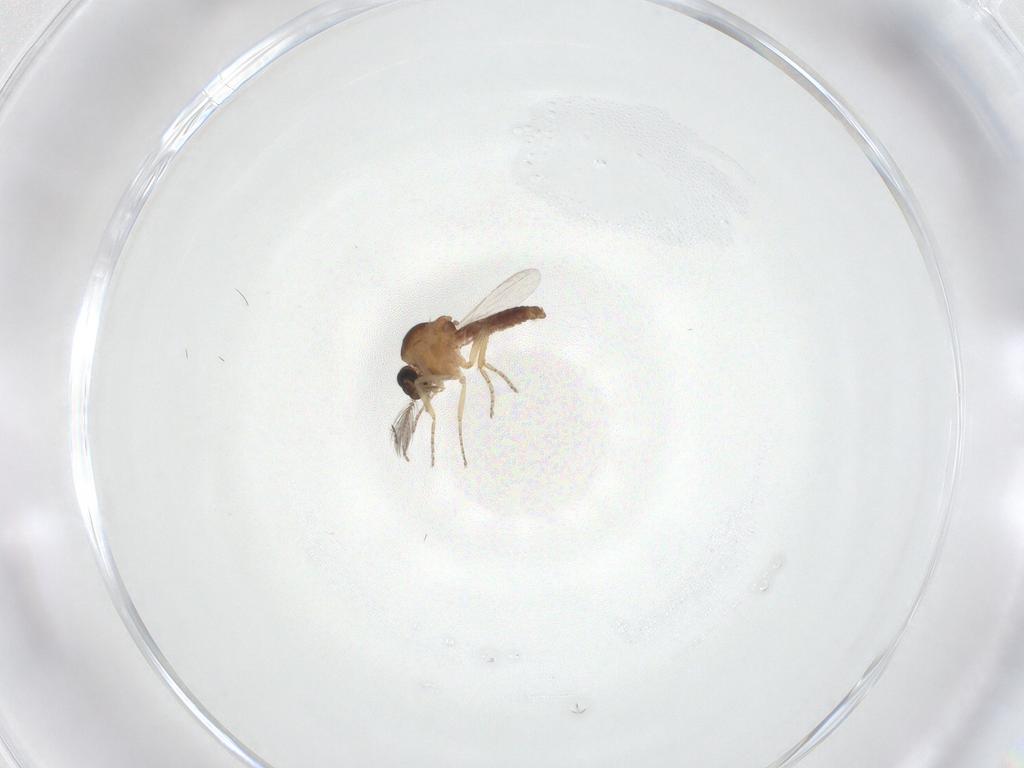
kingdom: Animalia
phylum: Arthropoda
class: Insecta
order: Diptera
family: Ceratopogonidae
